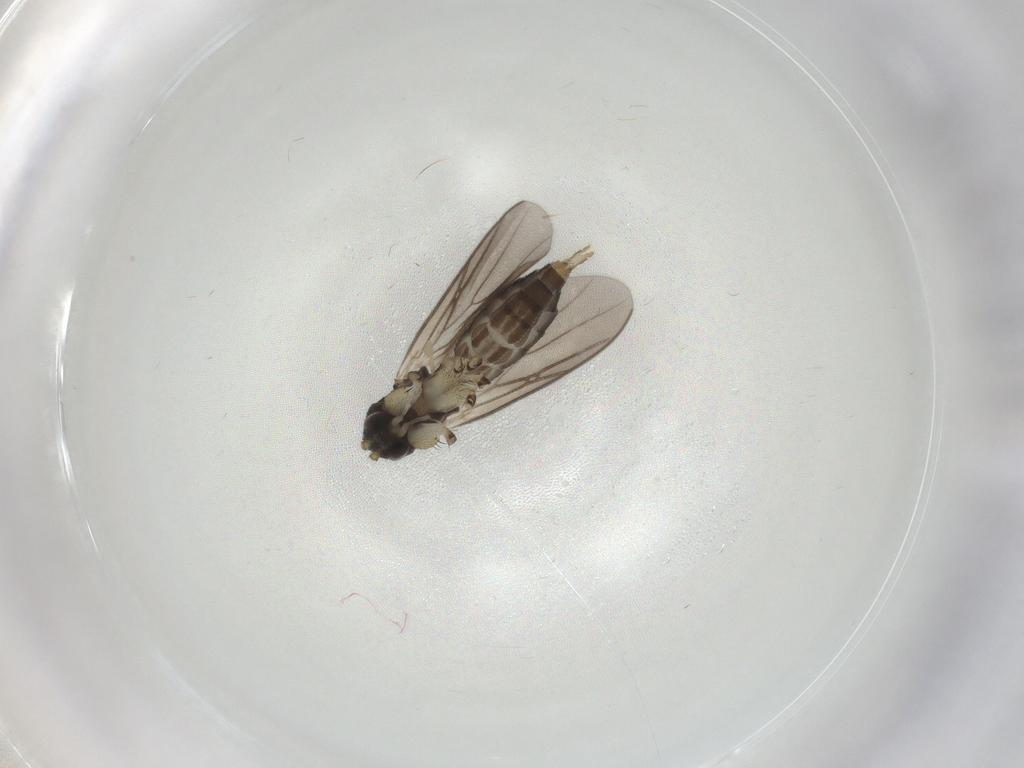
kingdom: Animalia
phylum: Arthropoda
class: Insecta
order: Diptera
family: Mycetophilidae
